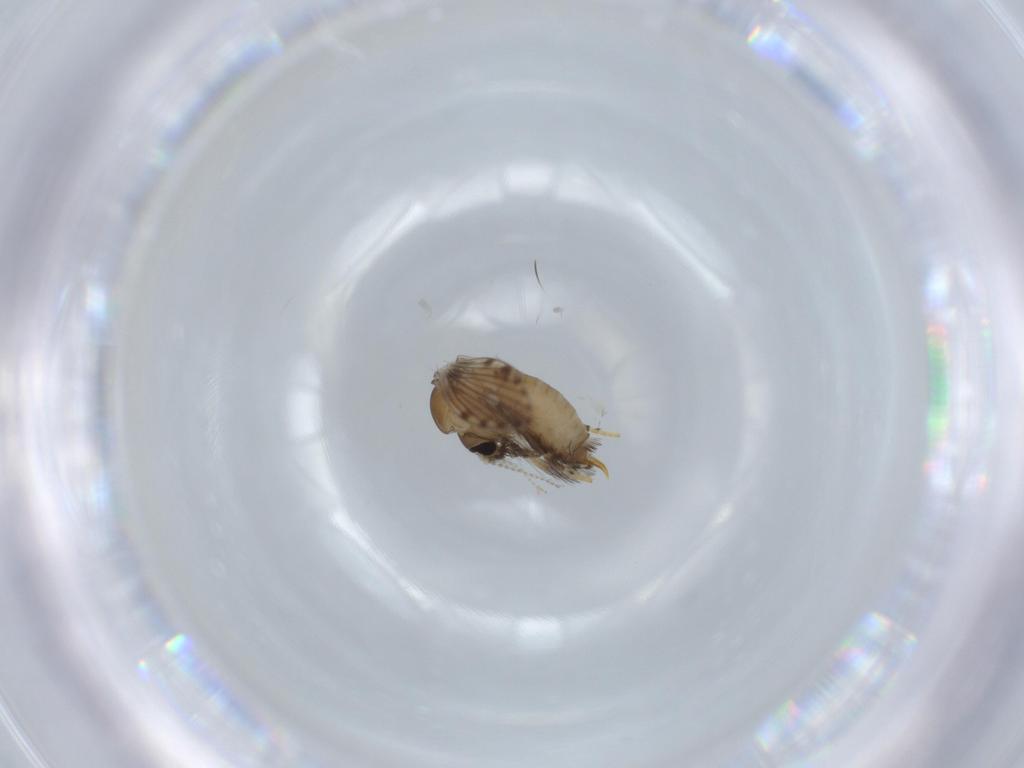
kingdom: Animalia
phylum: Arthropoda
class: Insecta
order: Diptera
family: Psychodidae
